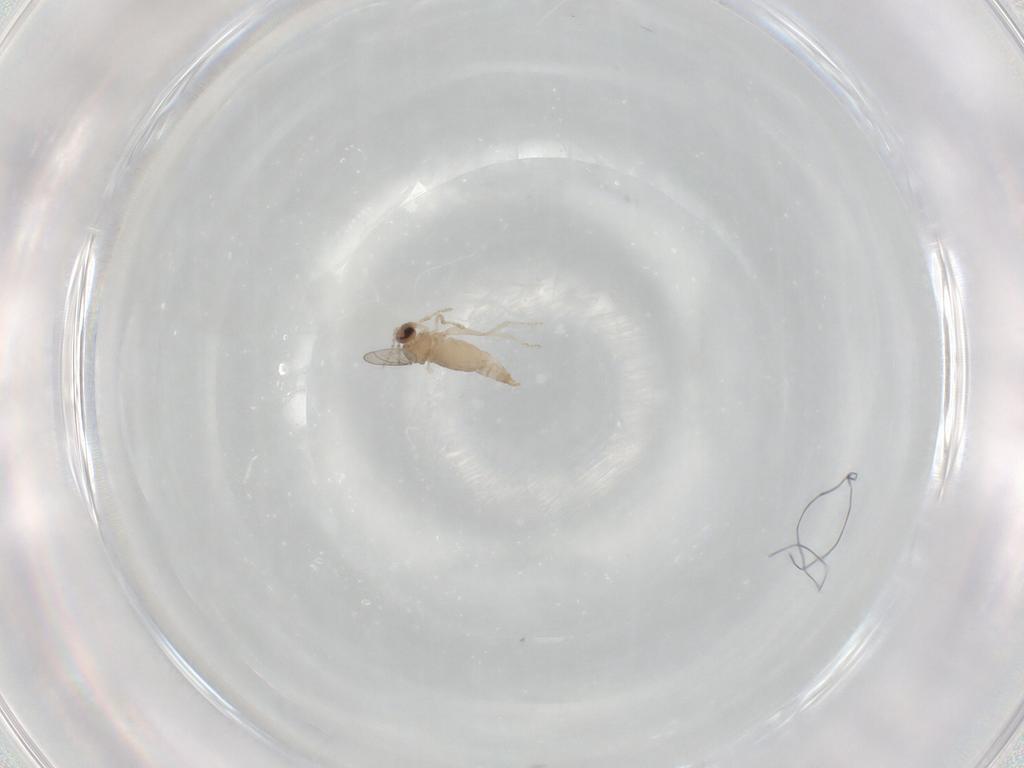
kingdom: Animalia
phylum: Arthropoda
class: Insecta
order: Diptera
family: Cecidomyiidae
